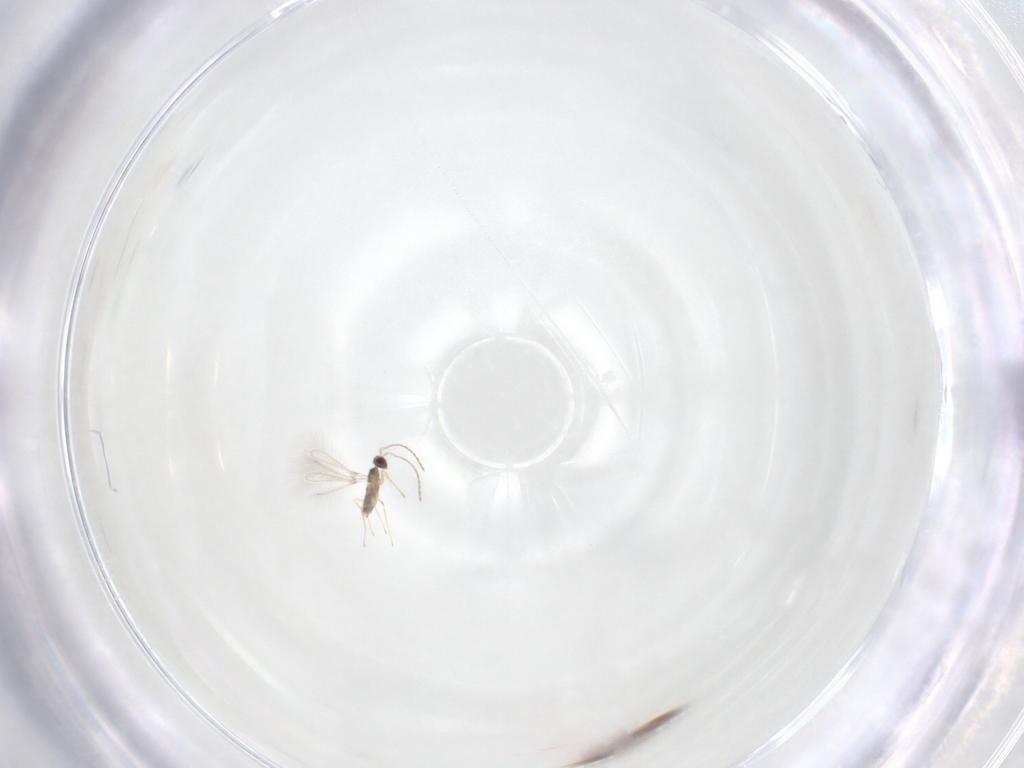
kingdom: Animalia
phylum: Arthropoda
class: Insecta
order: Hymenoptera
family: Mymaridae
